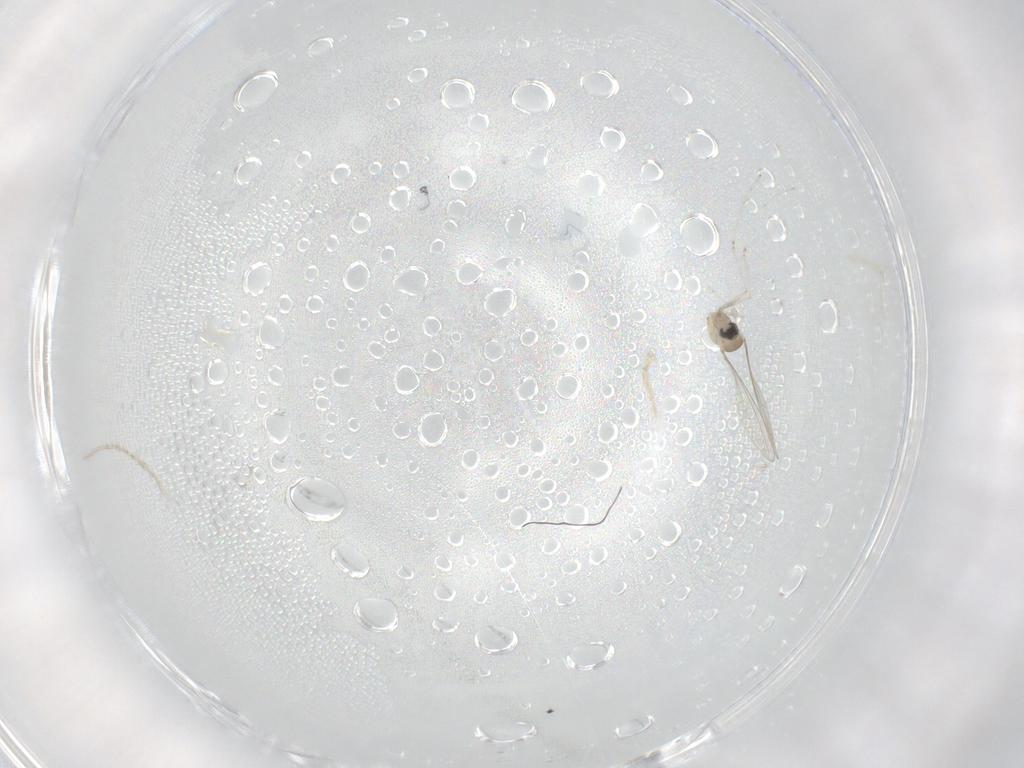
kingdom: Animalia
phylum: Arthropoda
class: Insecta
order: Diptera
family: Cecidomyiidae
